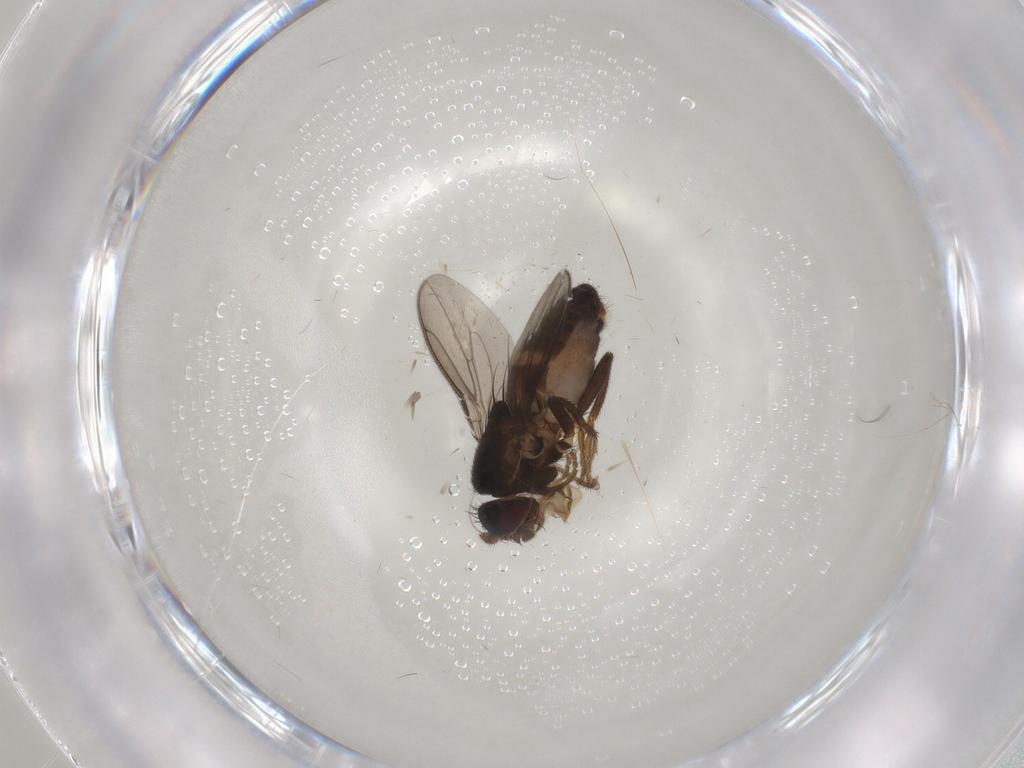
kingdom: Animalia
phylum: Arthropoda
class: Insecta
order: Diptera
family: Sphaeroceridae
